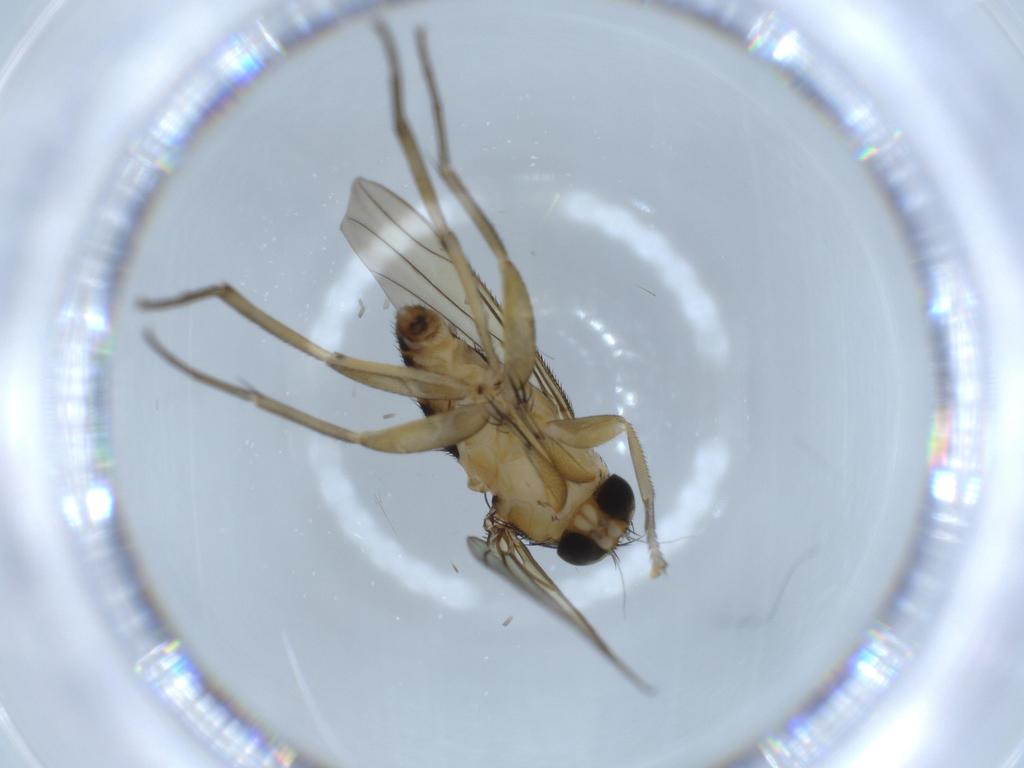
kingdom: Animalia
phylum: Arthropoda
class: Insecta
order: Diptera
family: Phoridae
